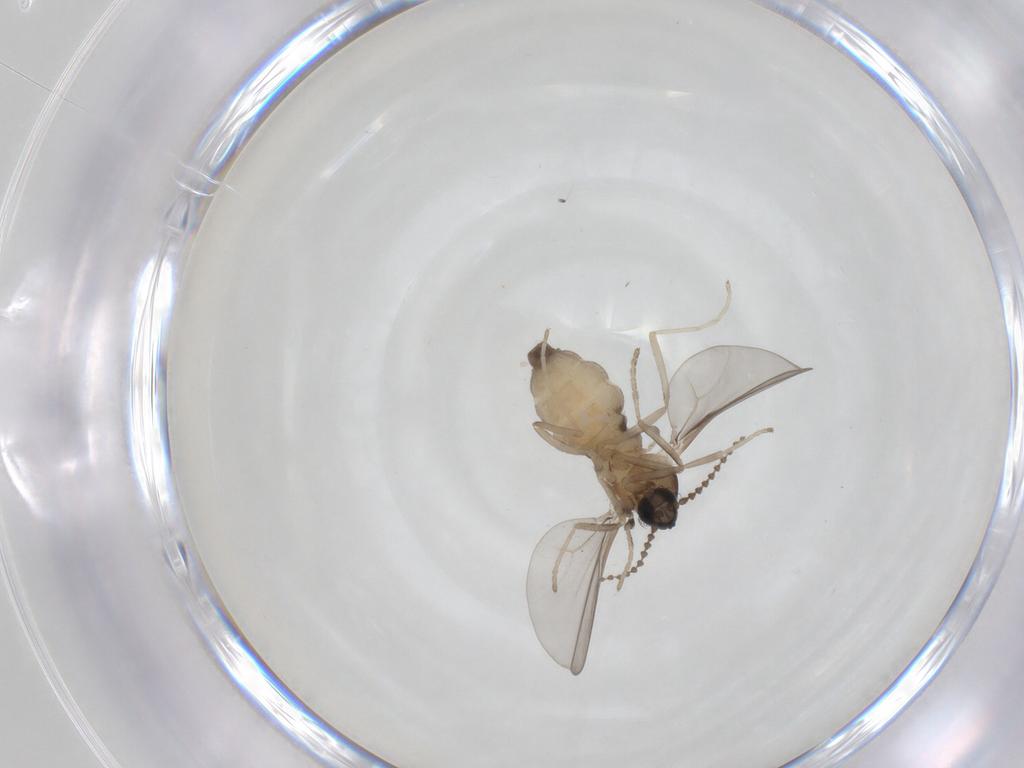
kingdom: Animalia
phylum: Arthropoda
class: Insecta
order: Diptera
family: Cecidomyiidae
